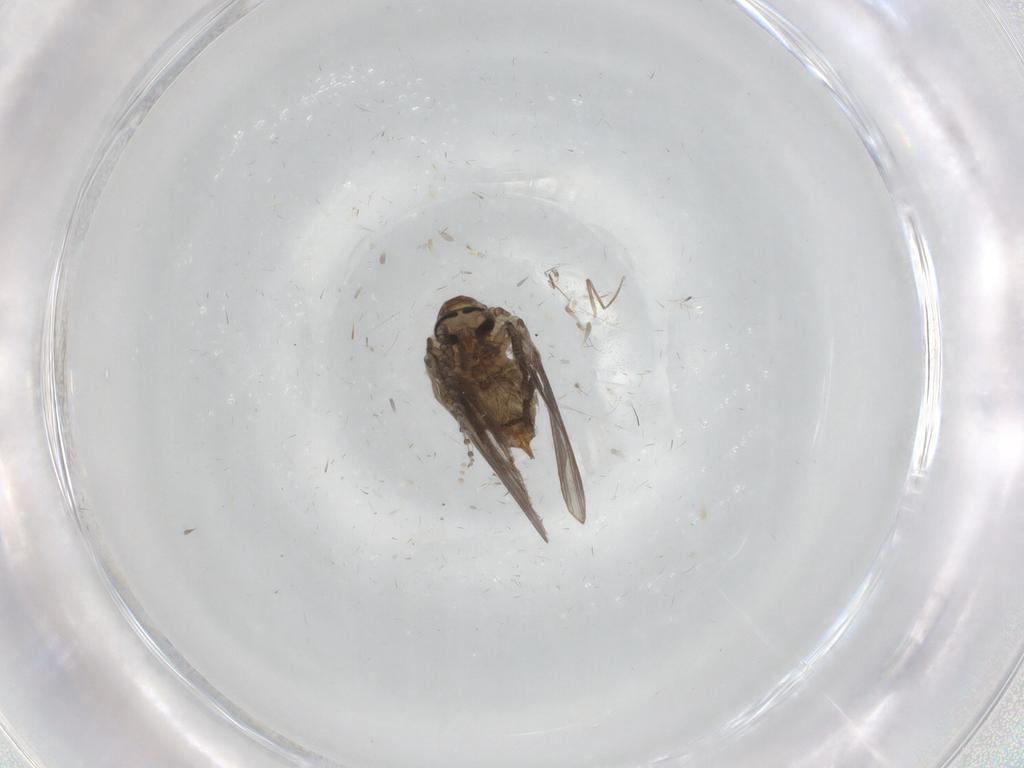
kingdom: Animalia
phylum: Arthropoda
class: Insecta
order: Diptera
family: Psychodidae
